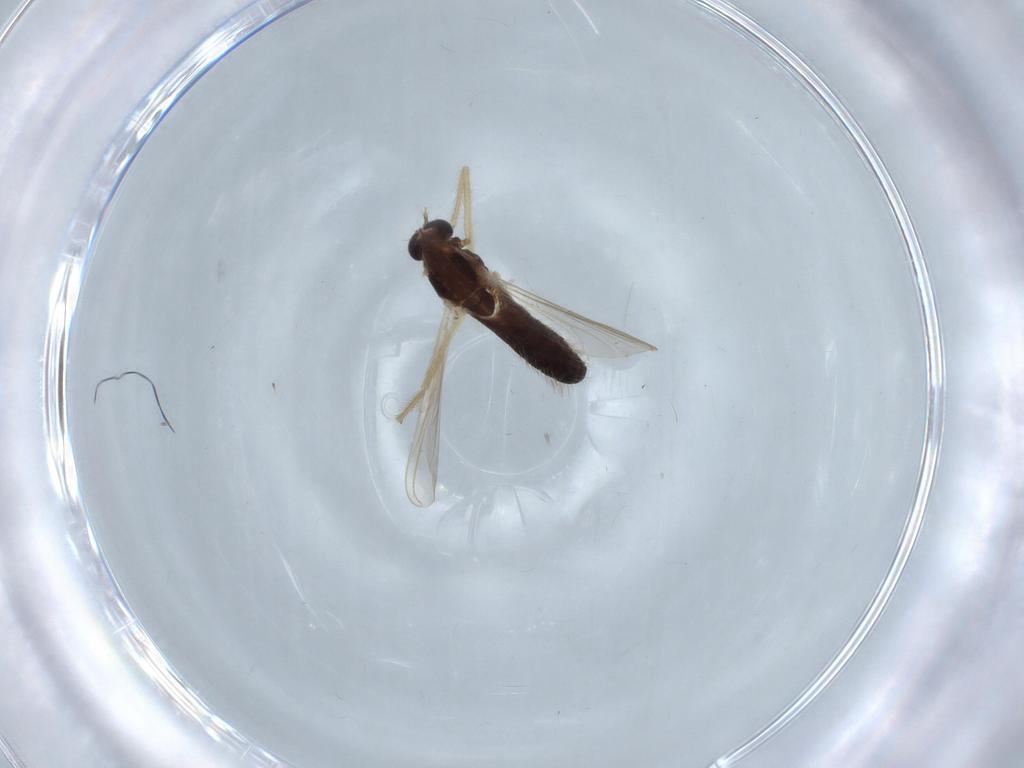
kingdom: Animalia
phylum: Arthropoda
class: Insecta
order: Diptera
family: Chironomidae
